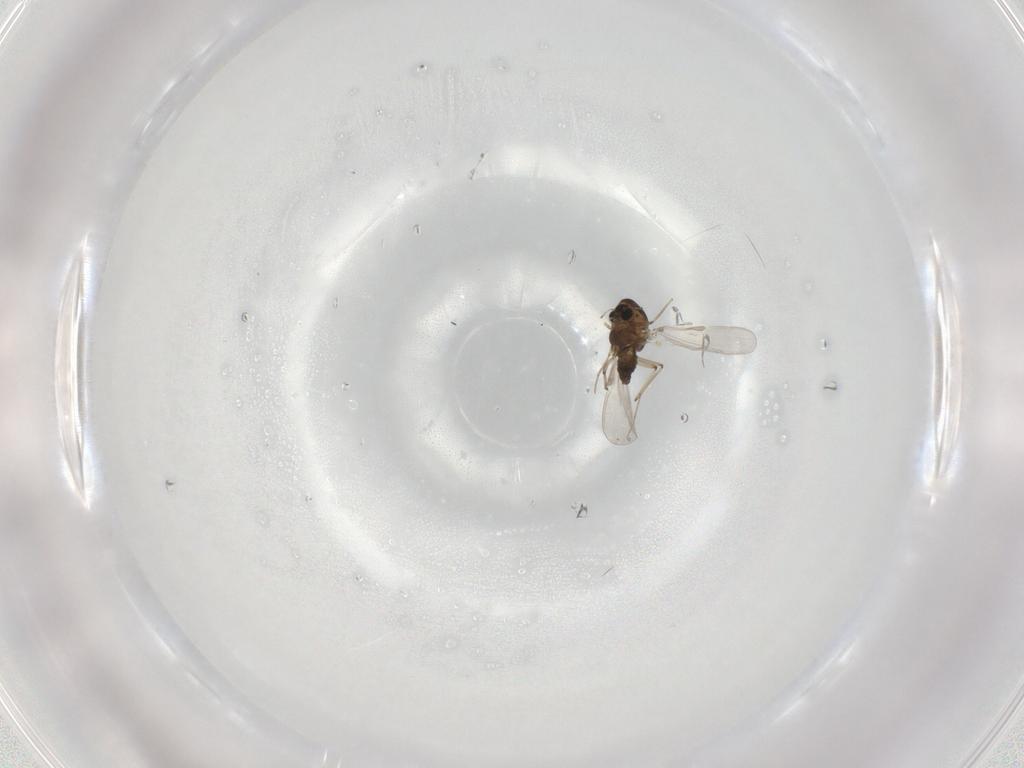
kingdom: Animalia
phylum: Arthropoda
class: Insecta
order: Diptera
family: Chironomidae
